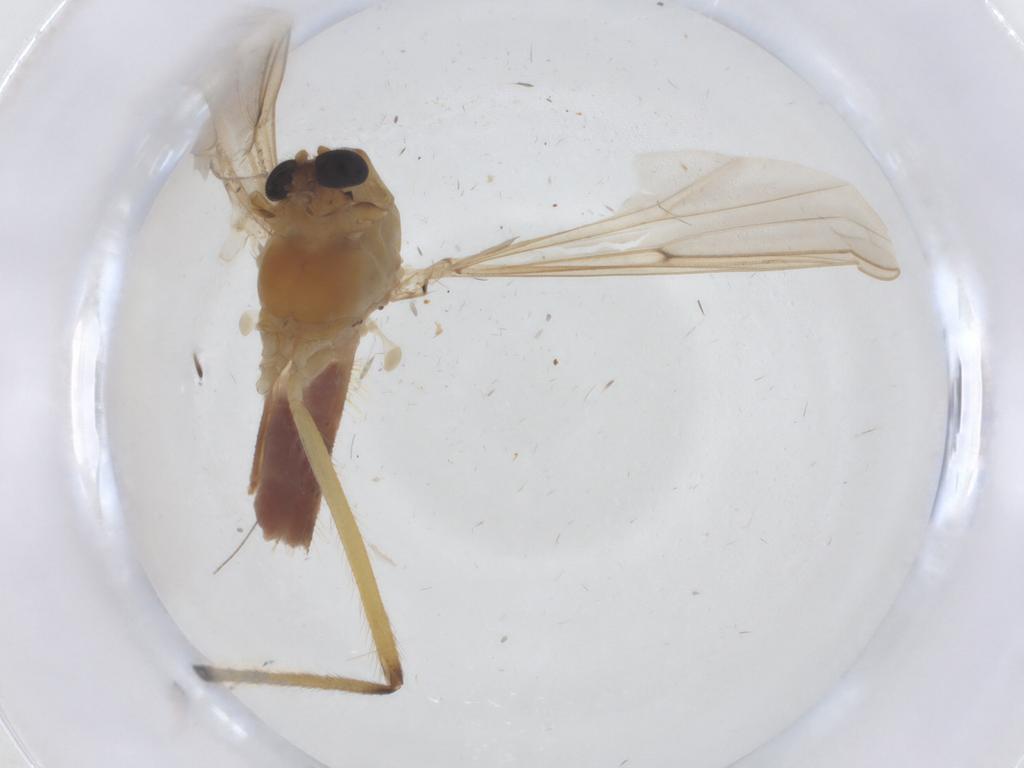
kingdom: Animalia
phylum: Arthropoda
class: Insecta
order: Diptera
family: Chironomidae
